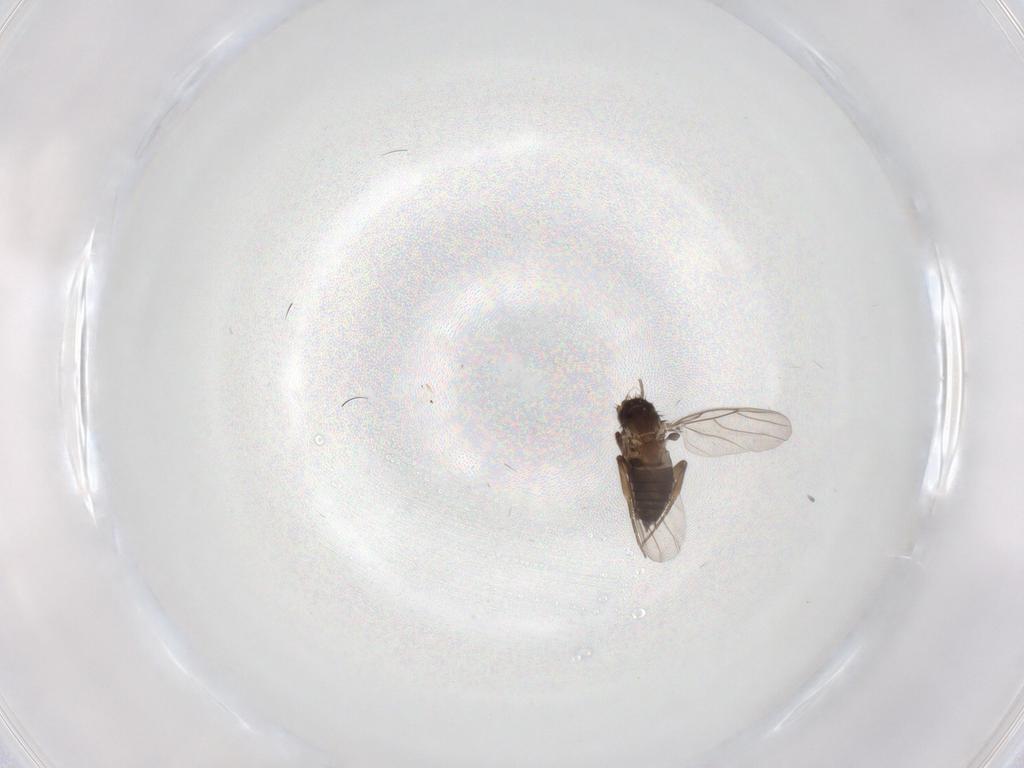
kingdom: Animalia
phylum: Arthropoda
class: Insecta
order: Diptera
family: Phoridae
